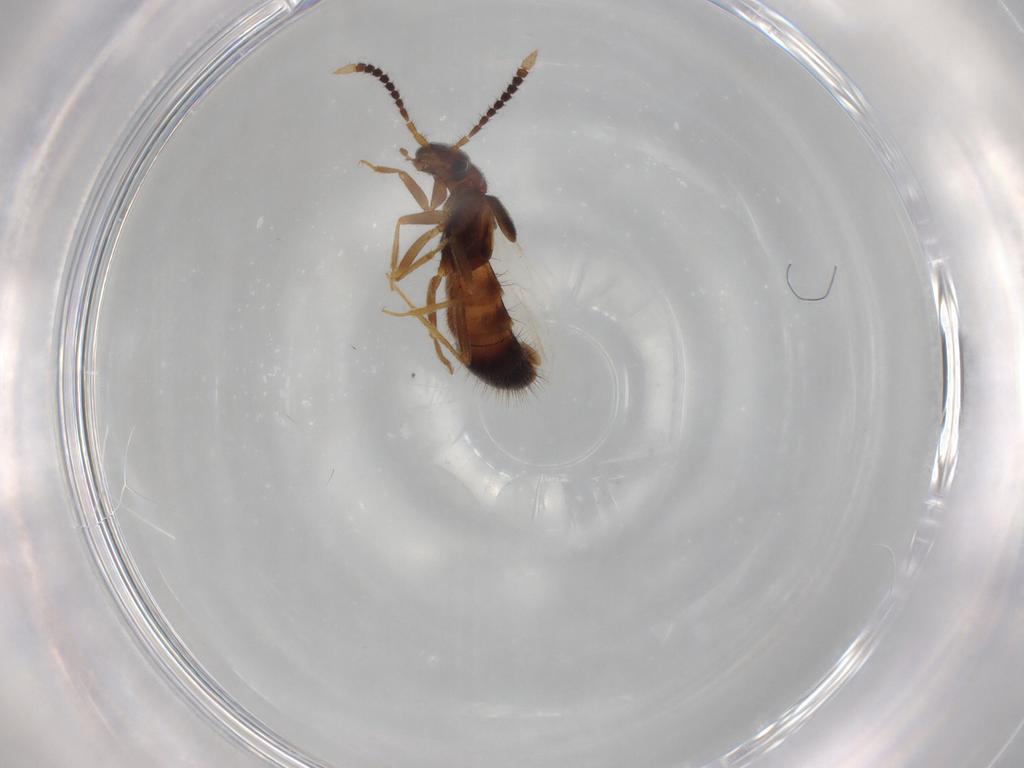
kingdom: Animalia
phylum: Arthropoda
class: Insecta
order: Coleoptera
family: Staphylinidae
